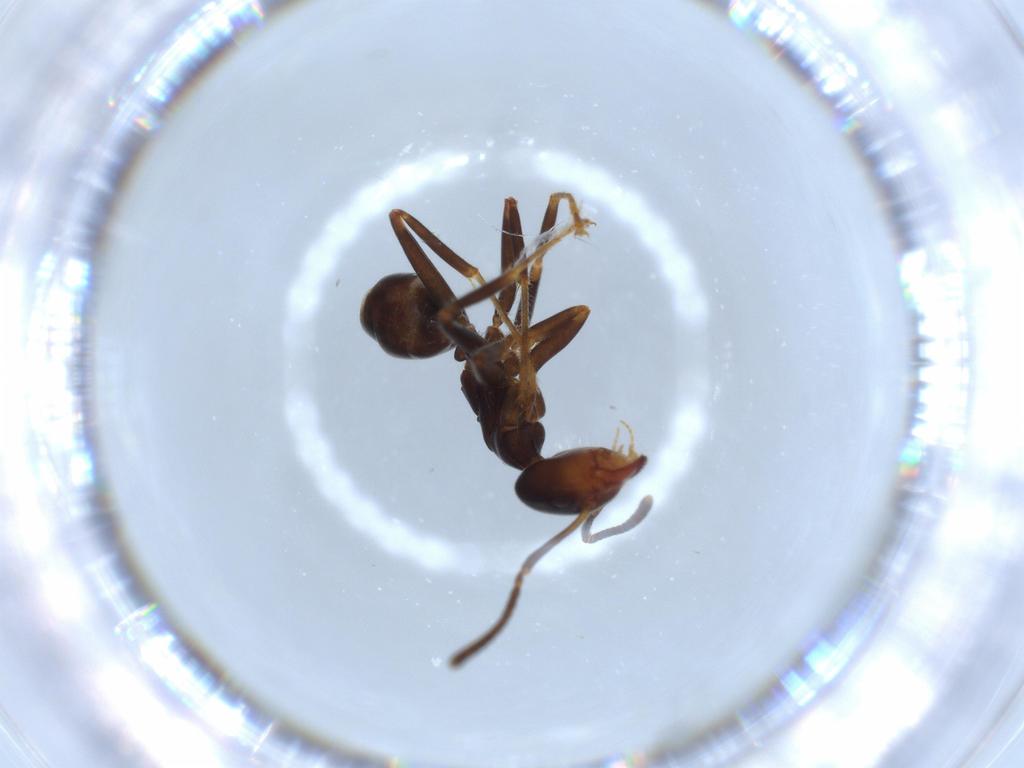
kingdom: Animalia
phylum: Arthropoda
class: Insecta
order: Hymenoptera
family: Formicidae
